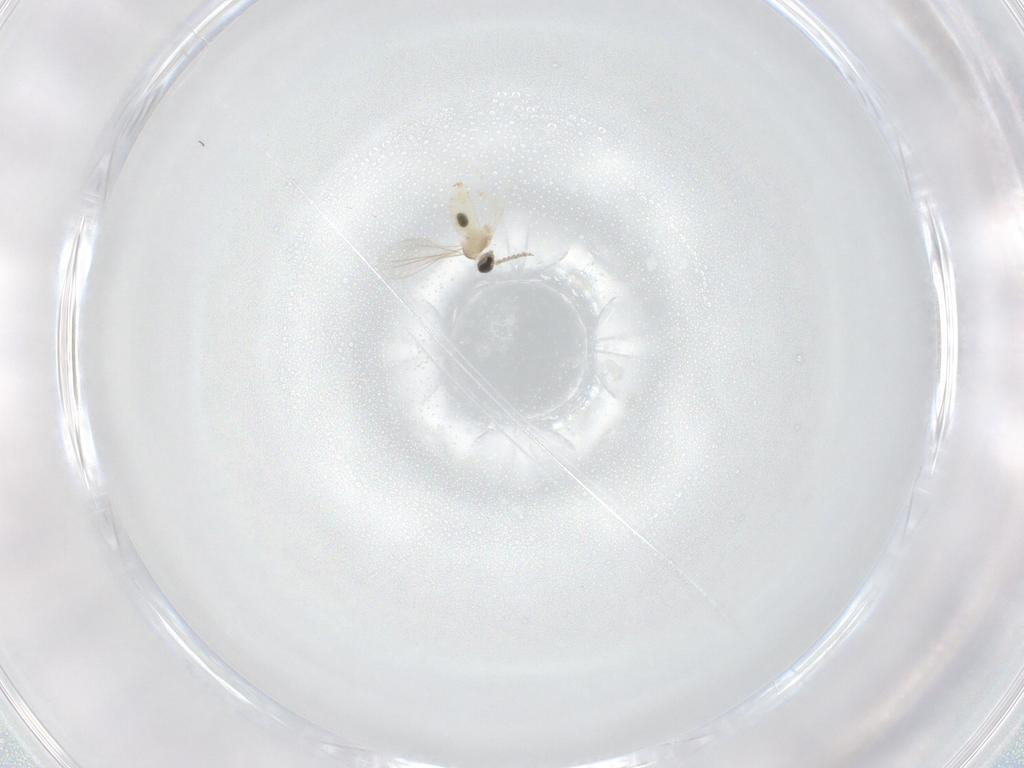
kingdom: Animalia
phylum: Arthropoda
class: Insecta
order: Diptera
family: Cecidomyiidae
